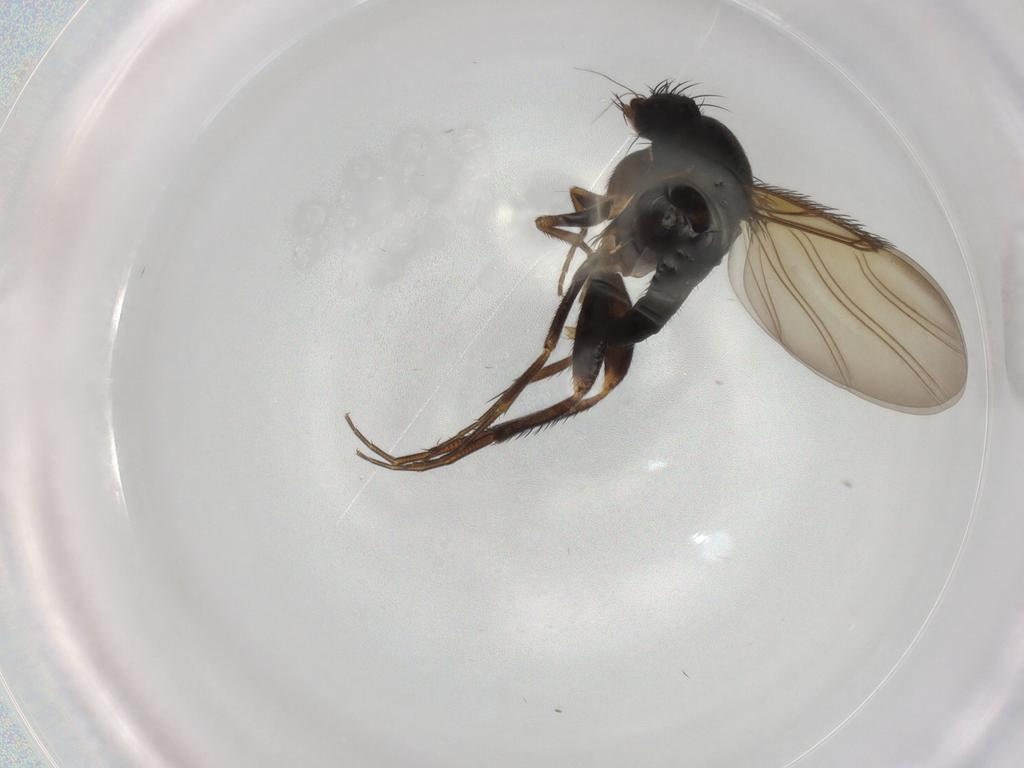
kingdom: Animalia
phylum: Arthropoda
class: Insecta
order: Diptera
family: Phoridae
